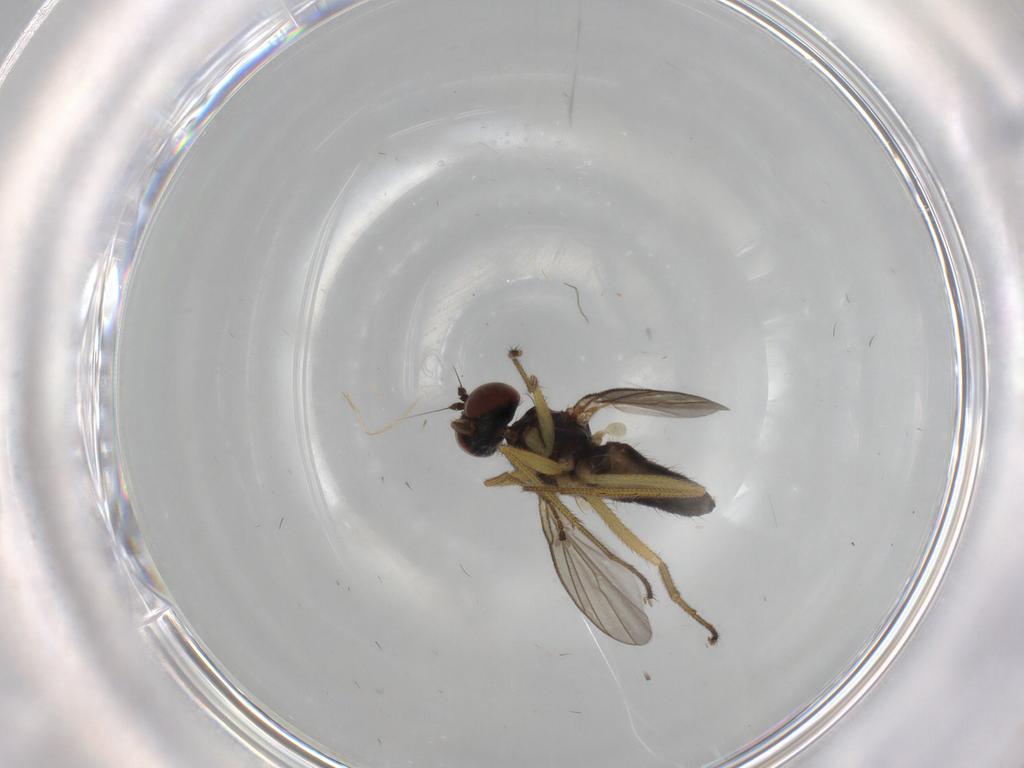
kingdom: Animalia
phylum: Arthropoda
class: Insecta
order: Diptera
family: Dolichopodidae
